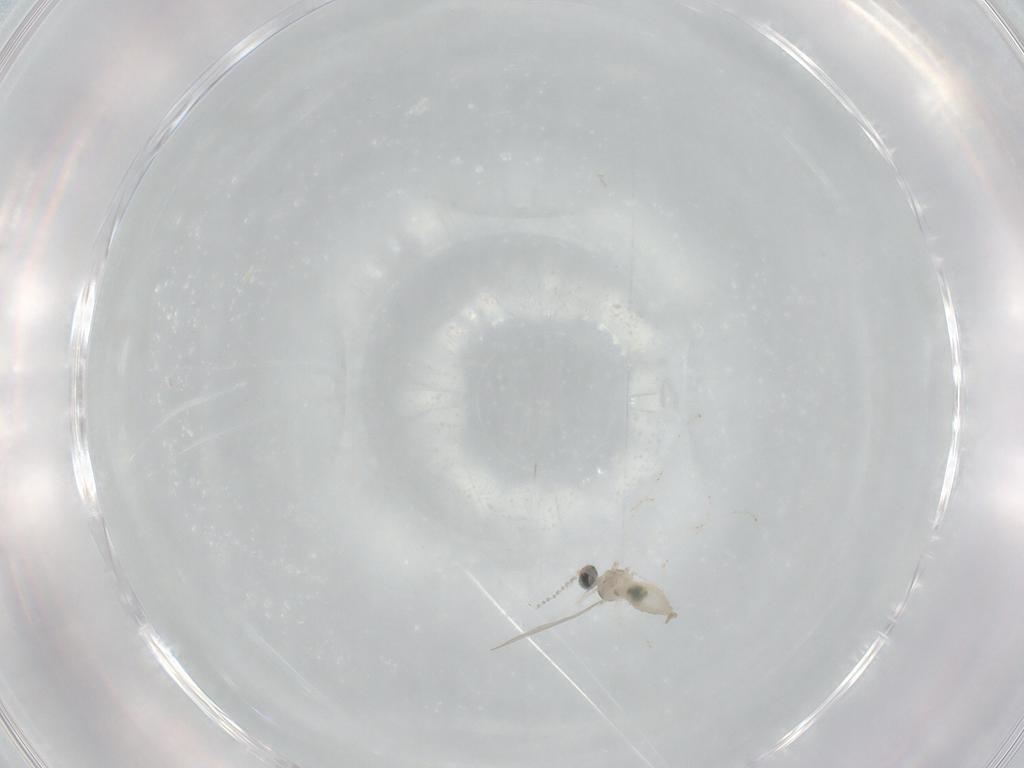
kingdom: Animalia
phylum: Arthropoda
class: Insecta
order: Diptera
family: Cecidomyiidae
